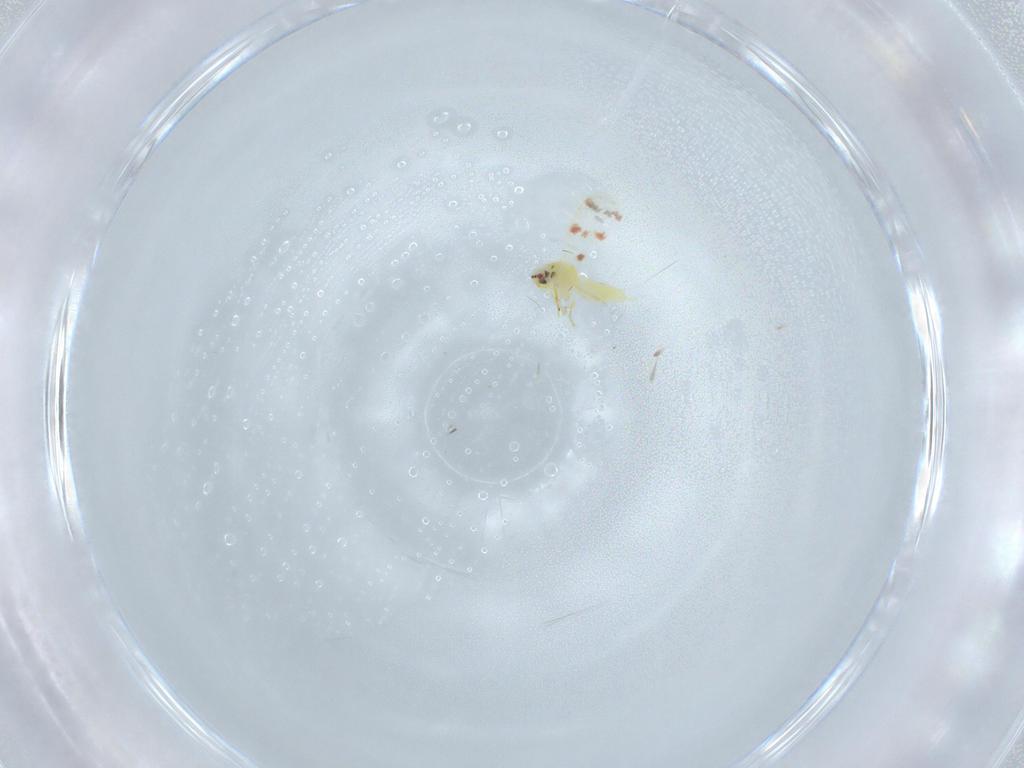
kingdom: Animalia
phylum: Arthropoda
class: Insecta
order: Hemiptera
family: Aleyrodidae
